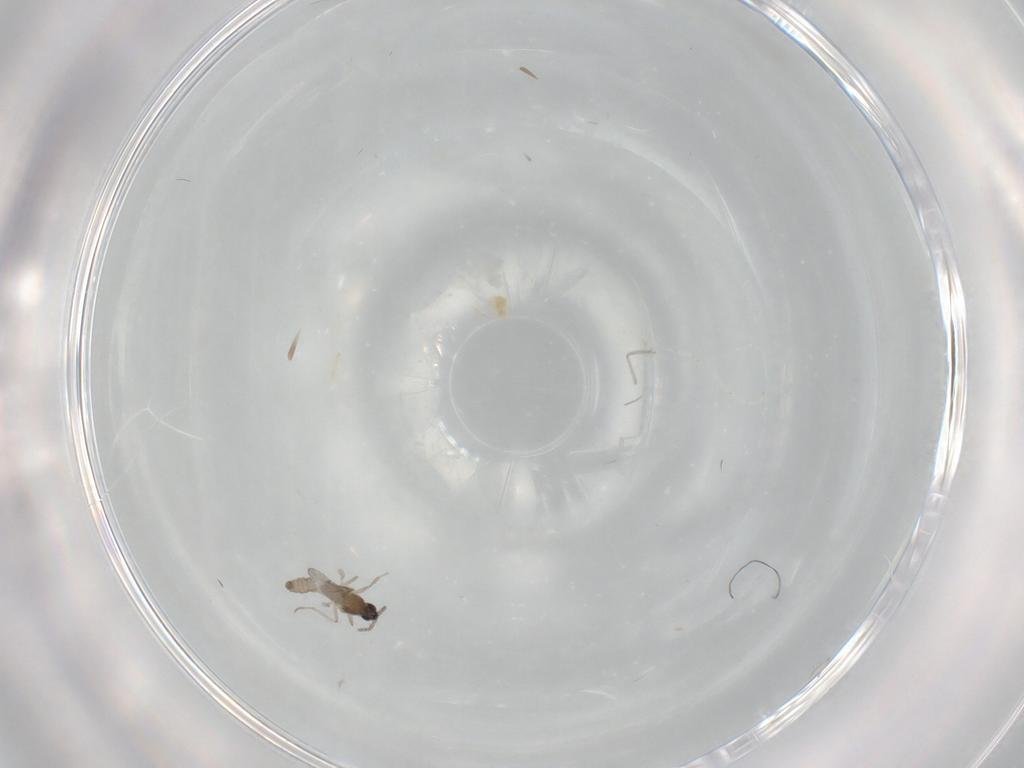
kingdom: Animalia
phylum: Arthropoda
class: Insecta
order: Diptera
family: Cecidomyiidae
